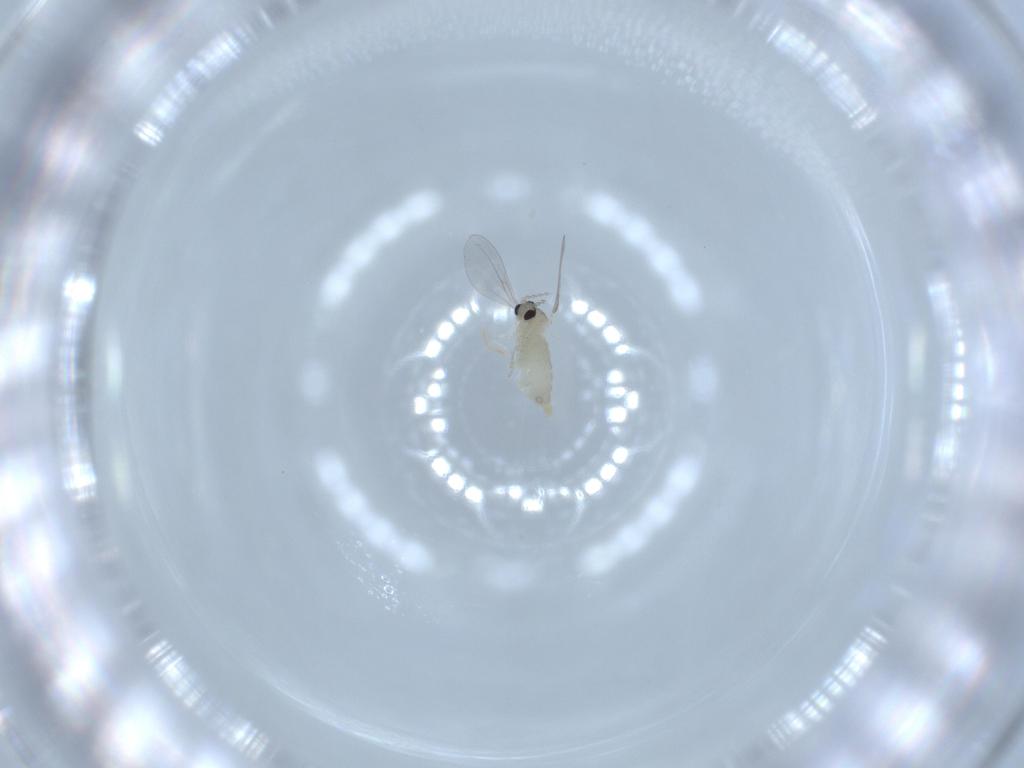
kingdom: Animalia
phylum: Arthropoda
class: Insecta
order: Diptera
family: Cecidomyiidae
